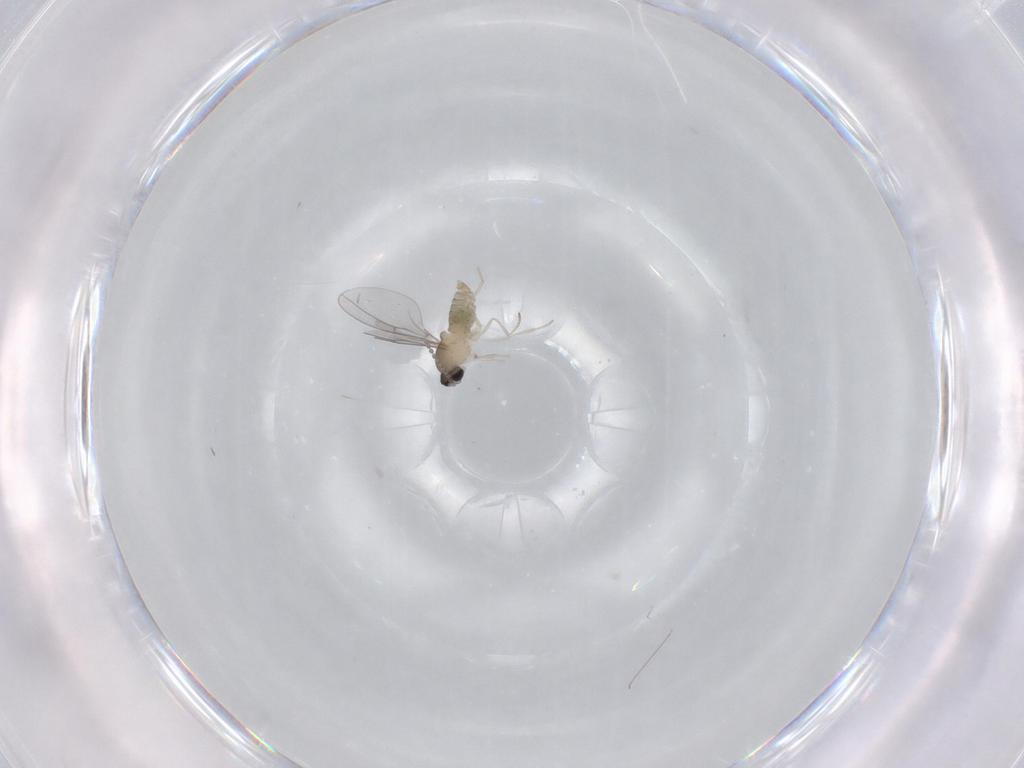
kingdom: Animalia
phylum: Arthropoda
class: Insecta
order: Diptera
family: Cecidomyiidae
